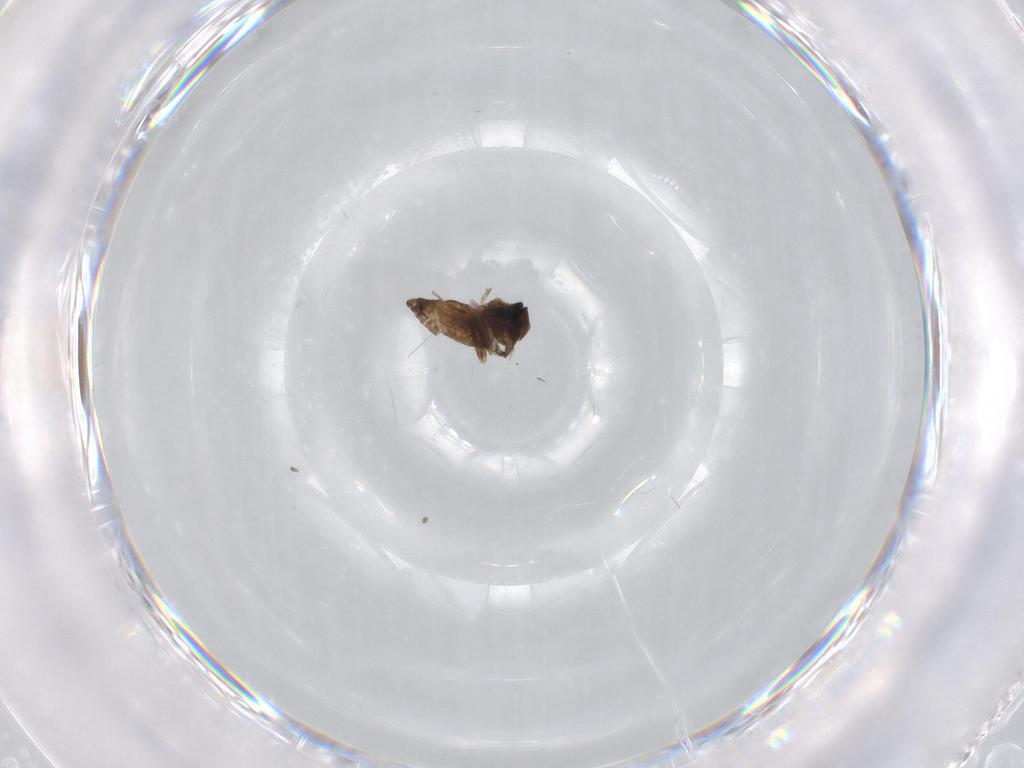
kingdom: Animalia
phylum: Arthropoda
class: Insecta
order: Diptera
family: Ceratopogonidae
